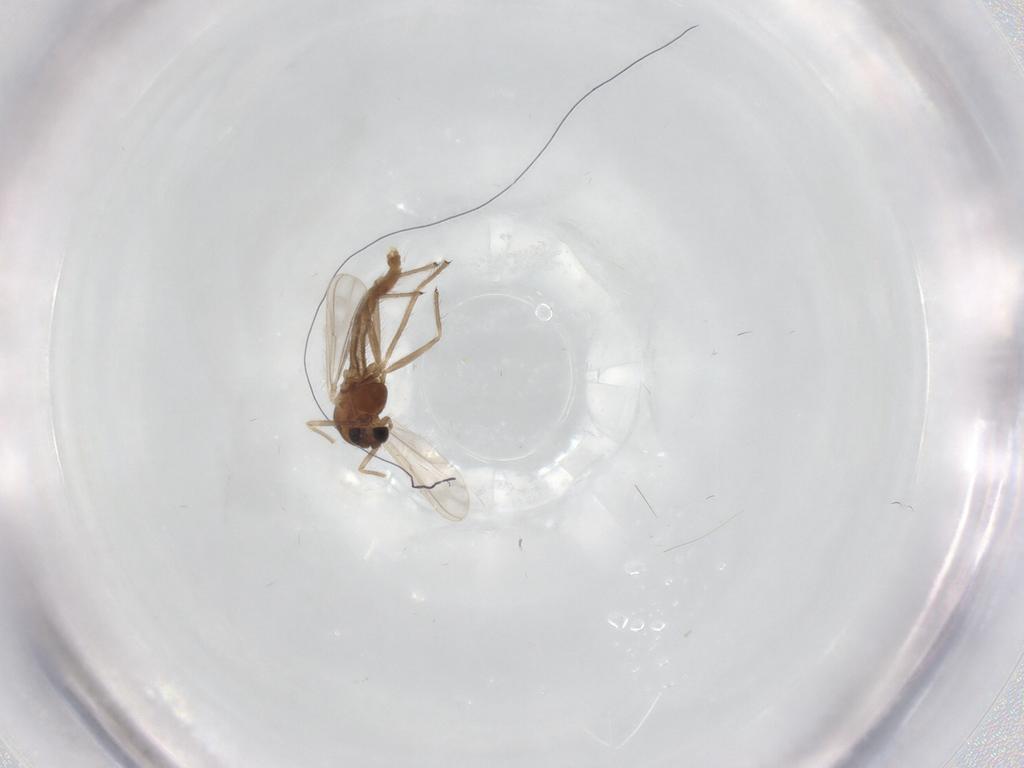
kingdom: Animalia
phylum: Arthropoda
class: Insecta
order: Diptera
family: Chironomidae
